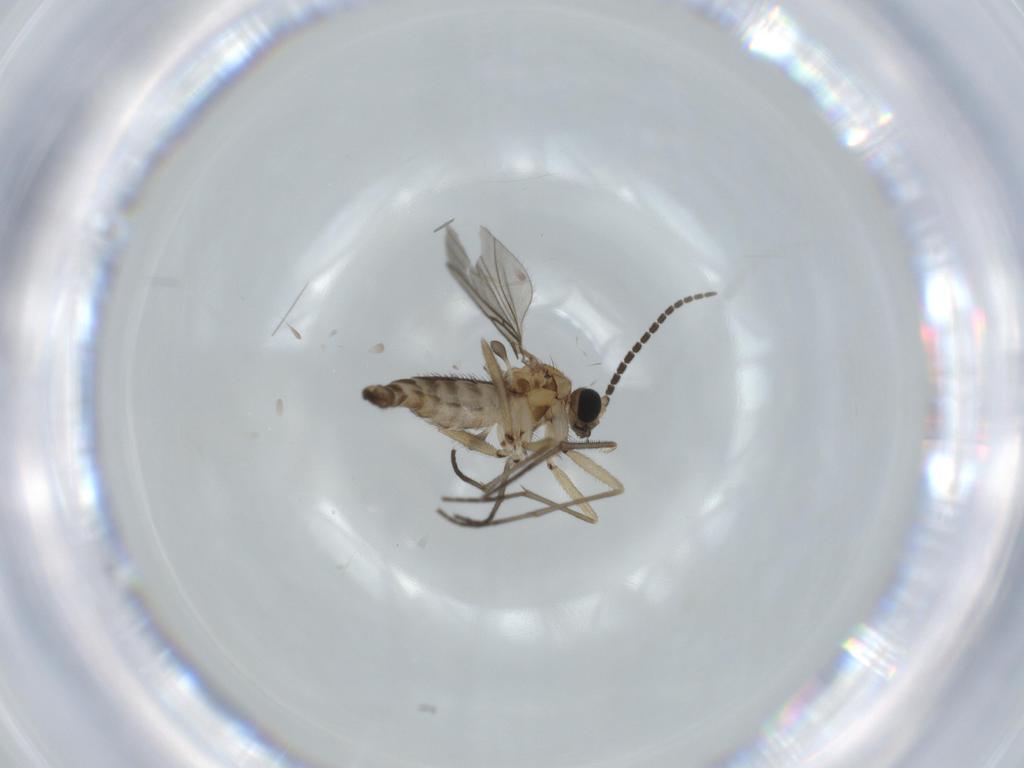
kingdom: Animalia
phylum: Arthropoda
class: Insecta
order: Diptera
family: Sciaridae
